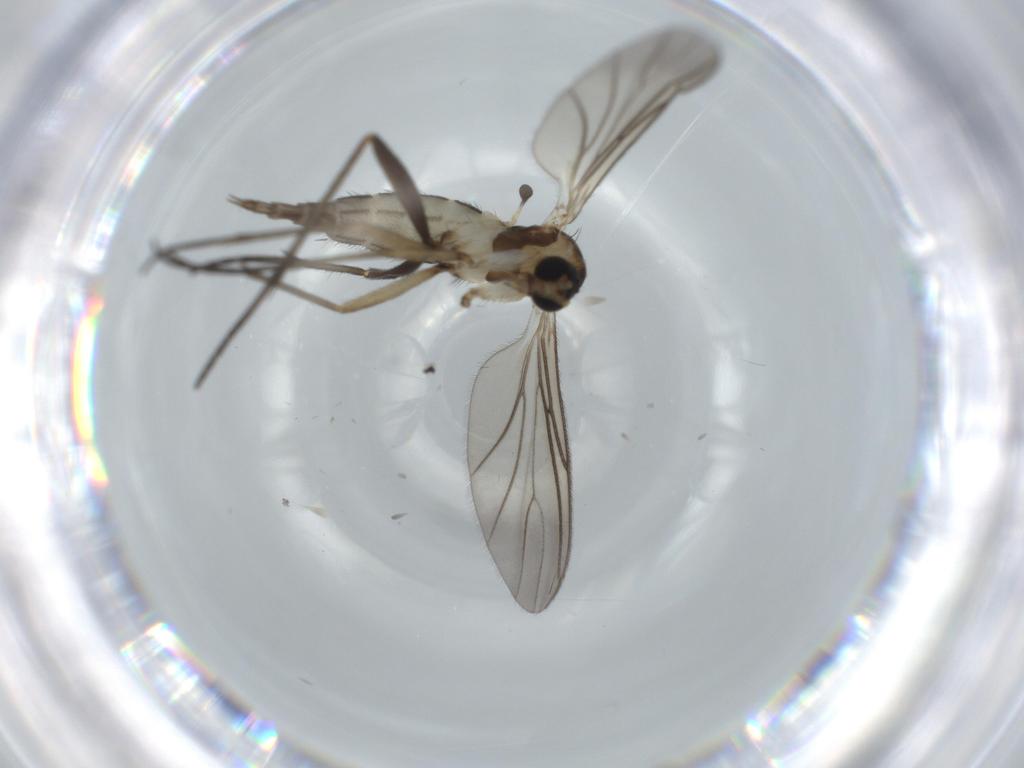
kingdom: Animalia
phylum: Arthropoda
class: Insecta
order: Diptera
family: Sciaridae
